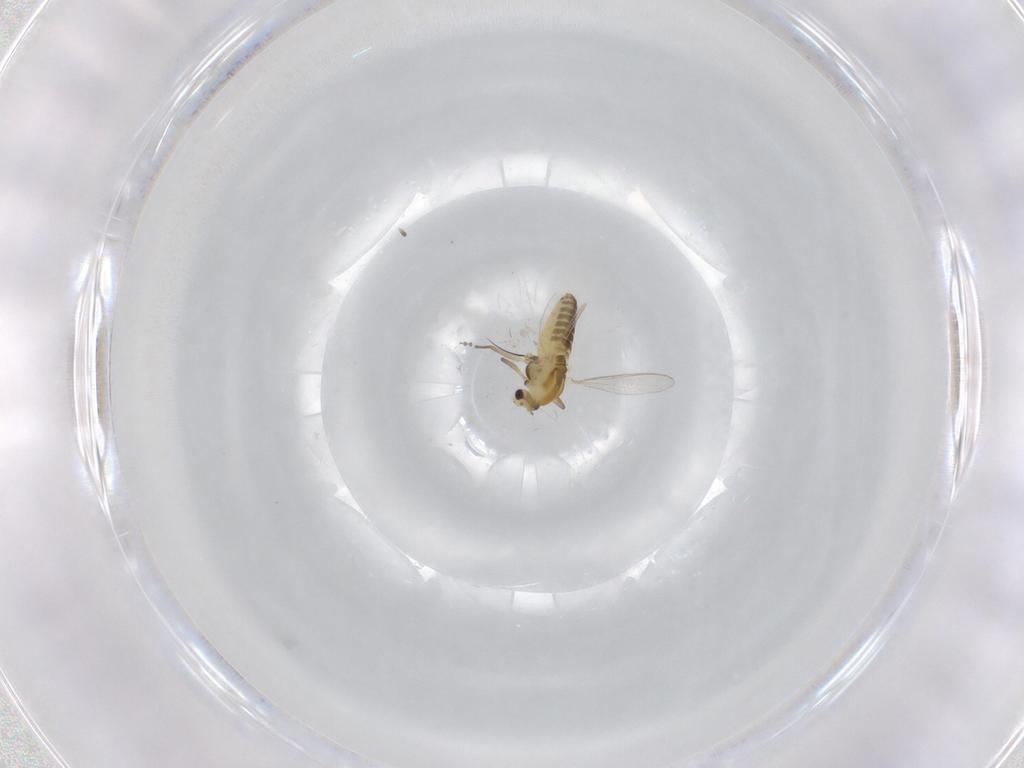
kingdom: Animalia
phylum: Arthropoda
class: Insecta
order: Diptera
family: Chironomidae
